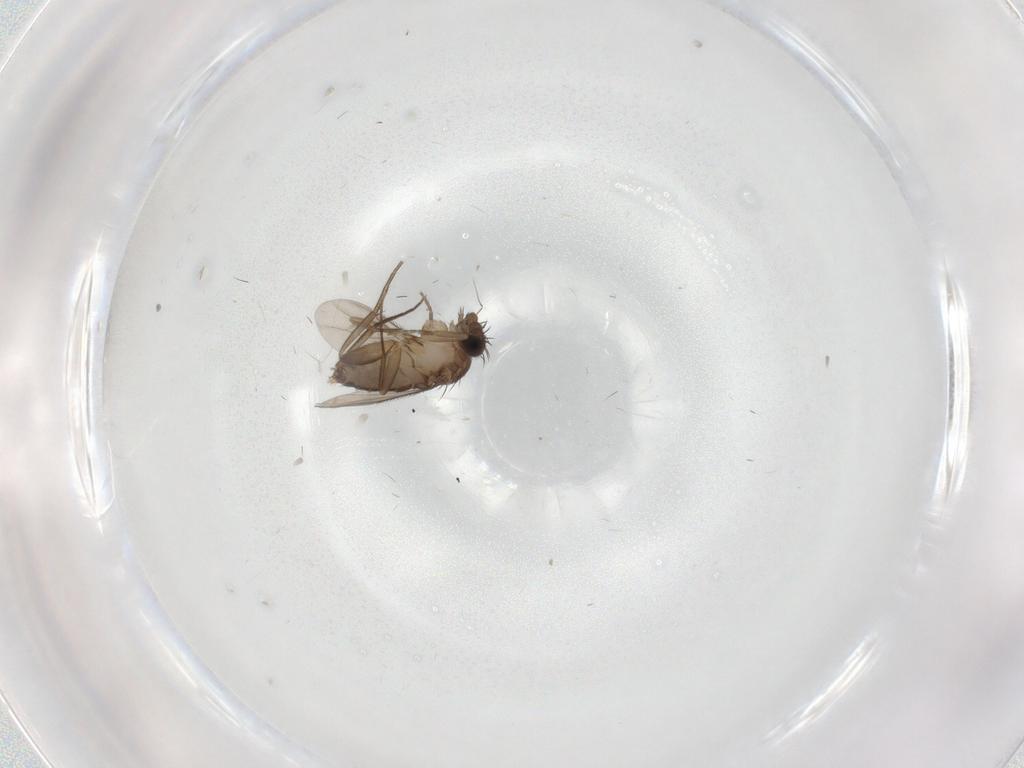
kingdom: Animalia
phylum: Arthropoda
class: Insecta
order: Diptera
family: Phoridae
